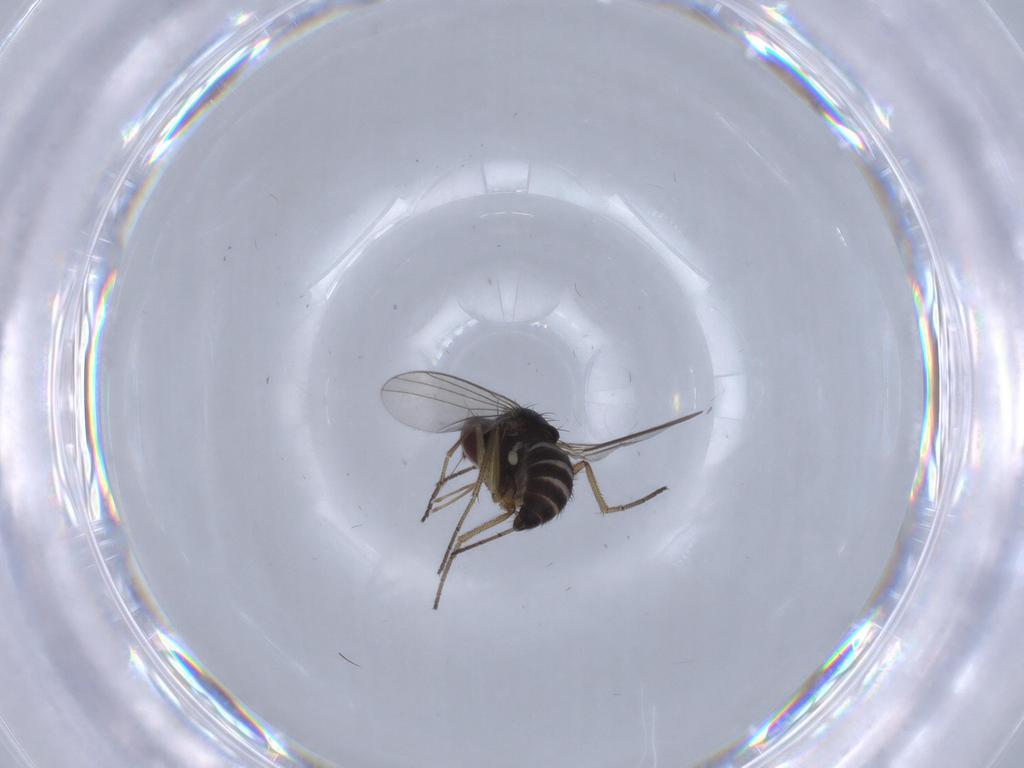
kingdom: Animalia
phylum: Arthropoda
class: Insecta
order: Diptera
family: Dolichopodidae
